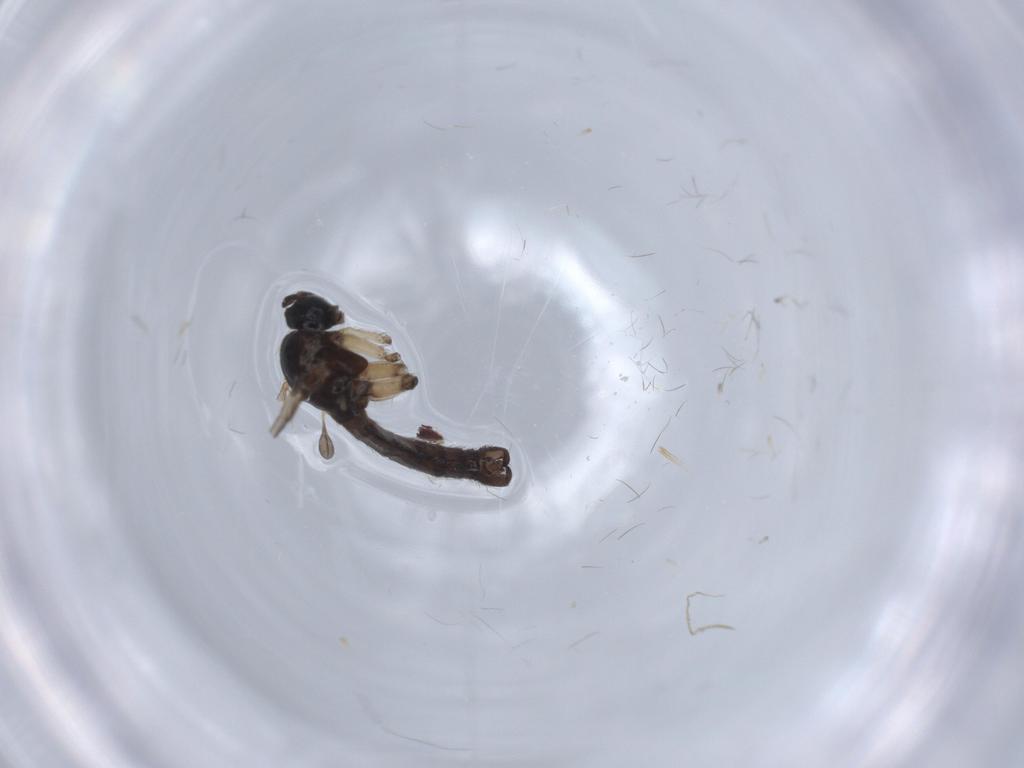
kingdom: Animalia
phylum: Arthropoda
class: Insecta
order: Diptera
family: Sciaridae
